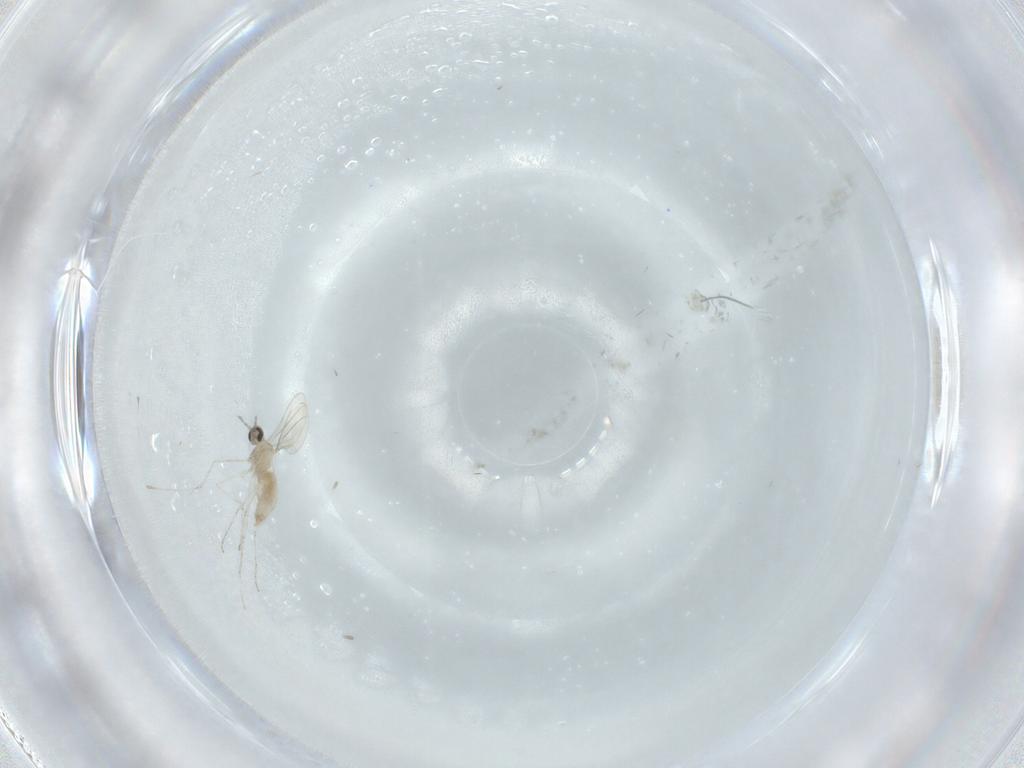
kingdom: Animalia
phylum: Arthropoda
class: Insecta
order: Diptera
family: Cecidomyiidae
